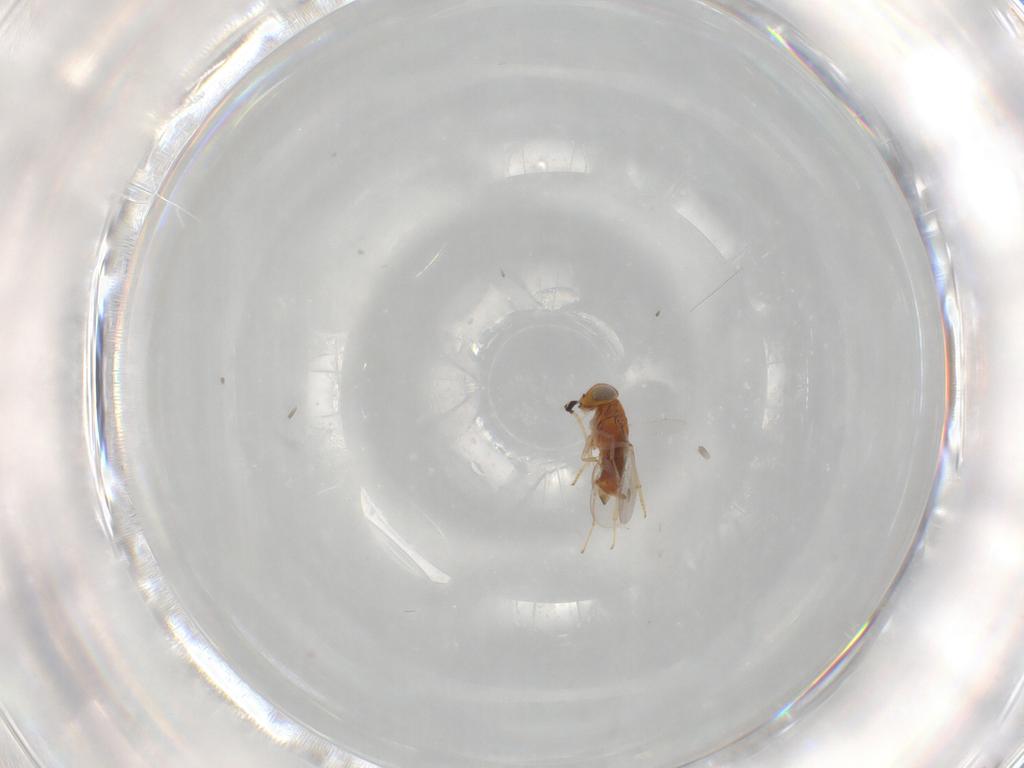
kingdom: Animalia
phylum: Arthropoda
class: Insecta
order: Hymenoptera
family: Encyrtidae
